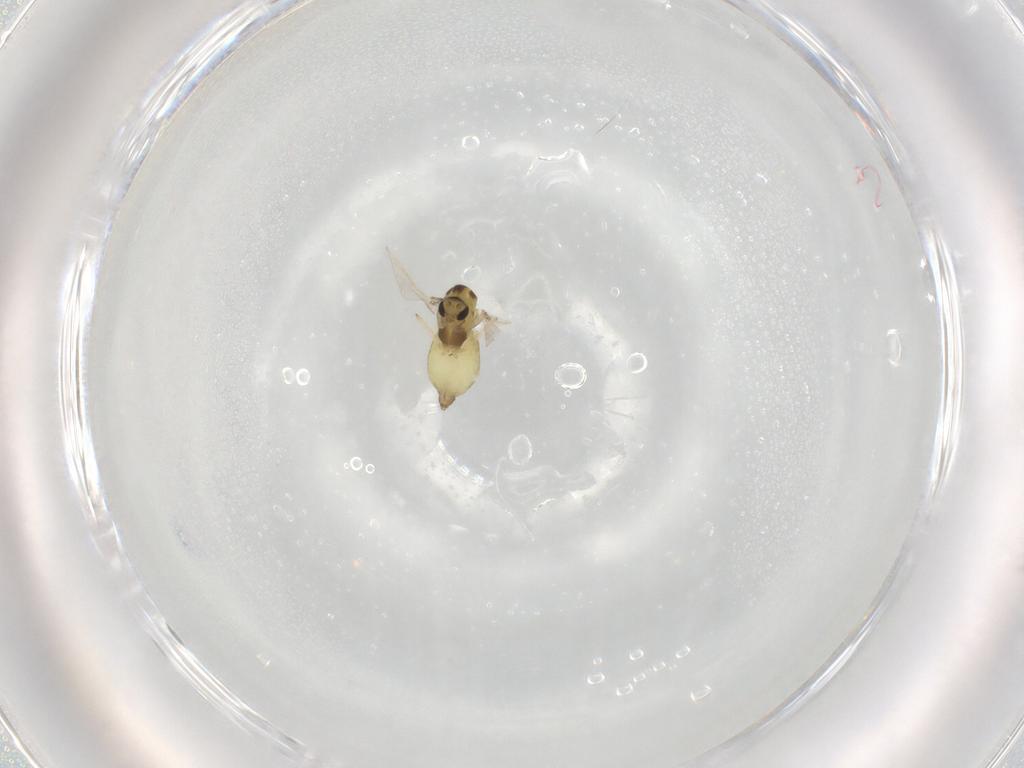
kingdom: Animalia
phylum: Arthropoda
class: Insecta
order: Diptera
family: Chironomidae
